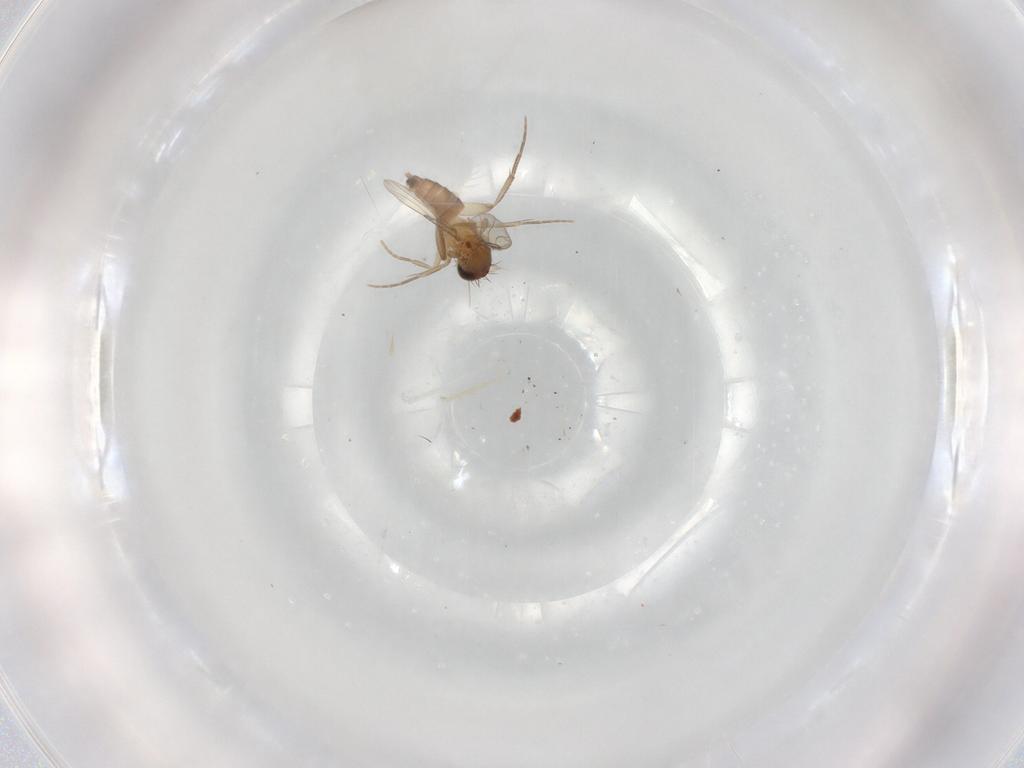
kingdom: Animalia
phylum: Arthropoda
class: Insecta
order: Diptera
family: Phoridae
